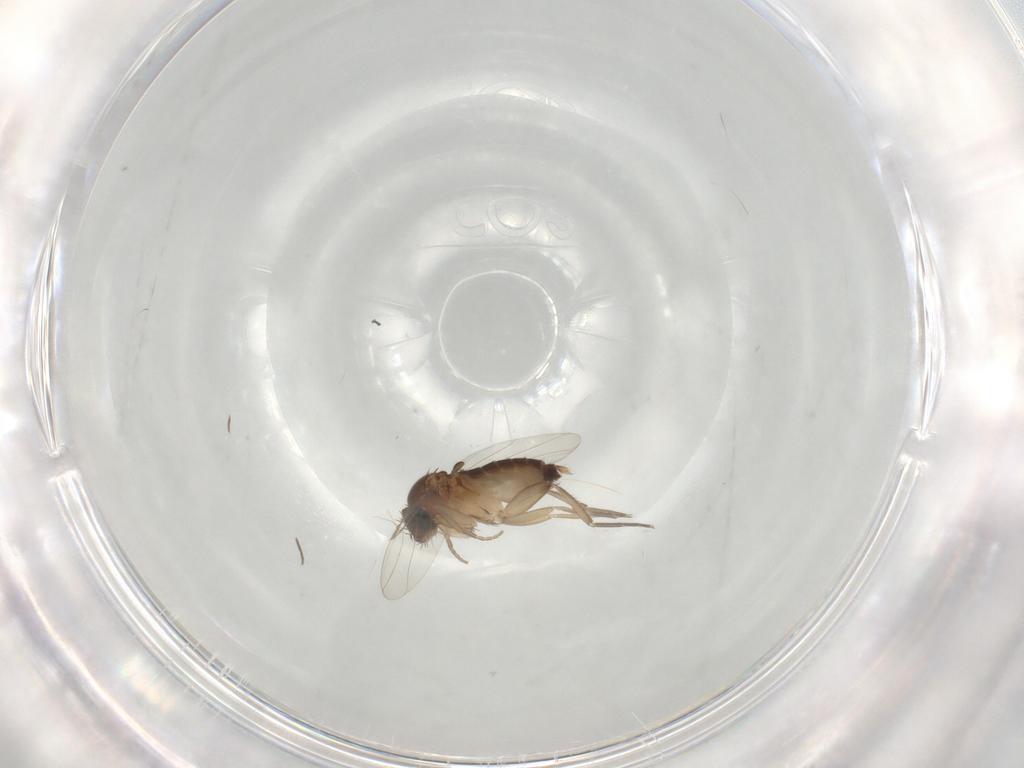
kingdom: Animalia
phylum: Arthropoda
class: Insecta
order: Diptera
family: Phoridae
